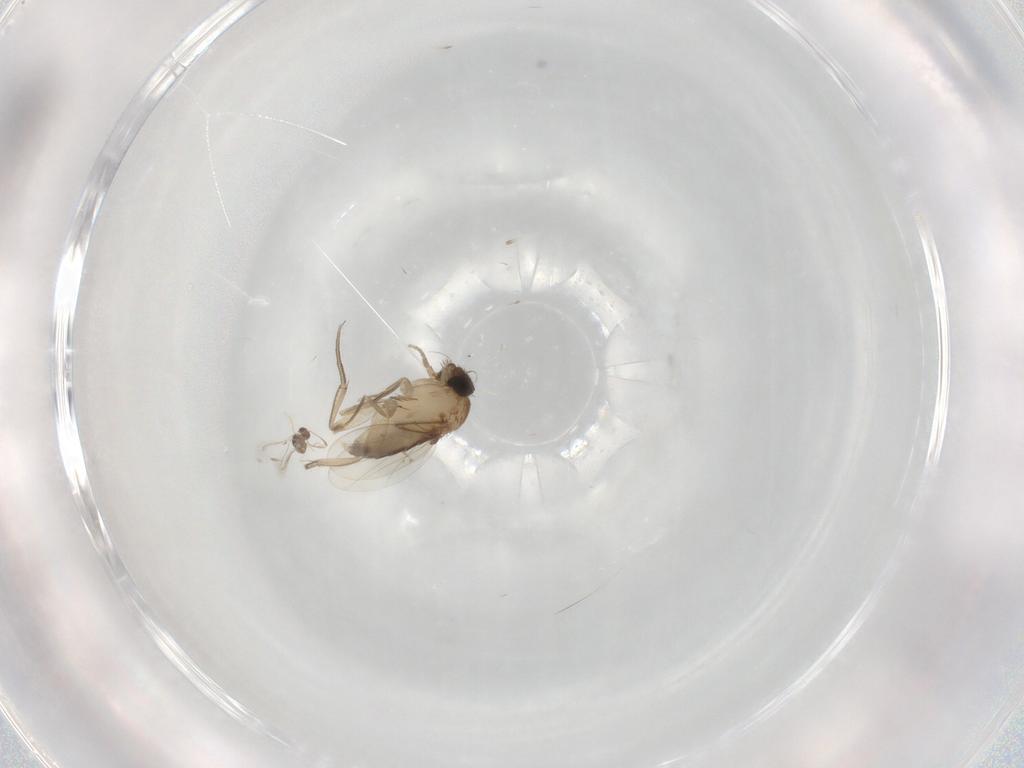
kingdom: Animalia
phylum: Arthropoda
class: Insecta
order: Diptera
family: Phoridae
